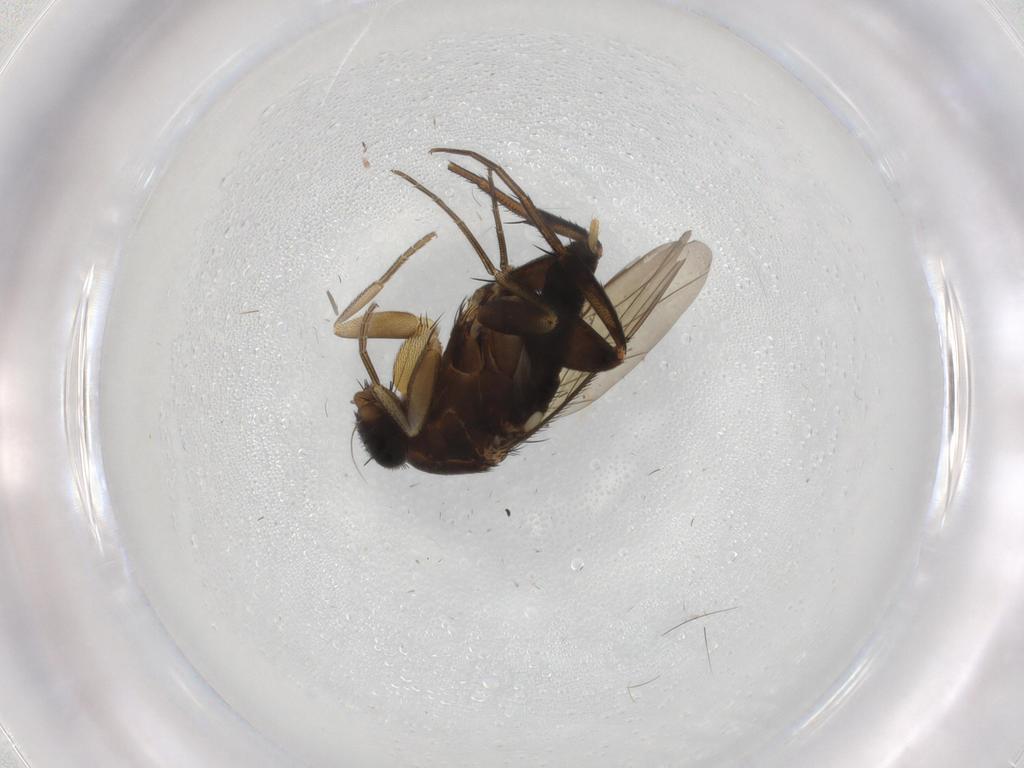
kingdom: Animalia
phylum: Arthropoda
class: Insecta
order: Diptera
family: Phoridae
